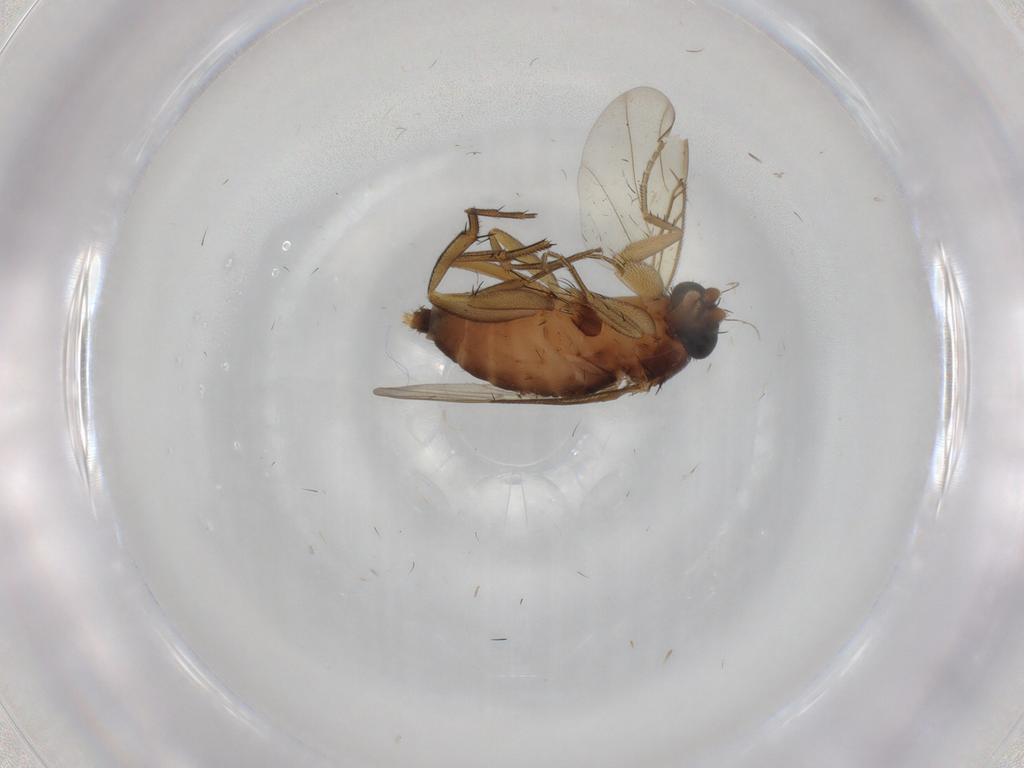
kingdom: Animalia
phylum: Arthropoda
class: Insecta
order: Diptera
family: Phoridae
